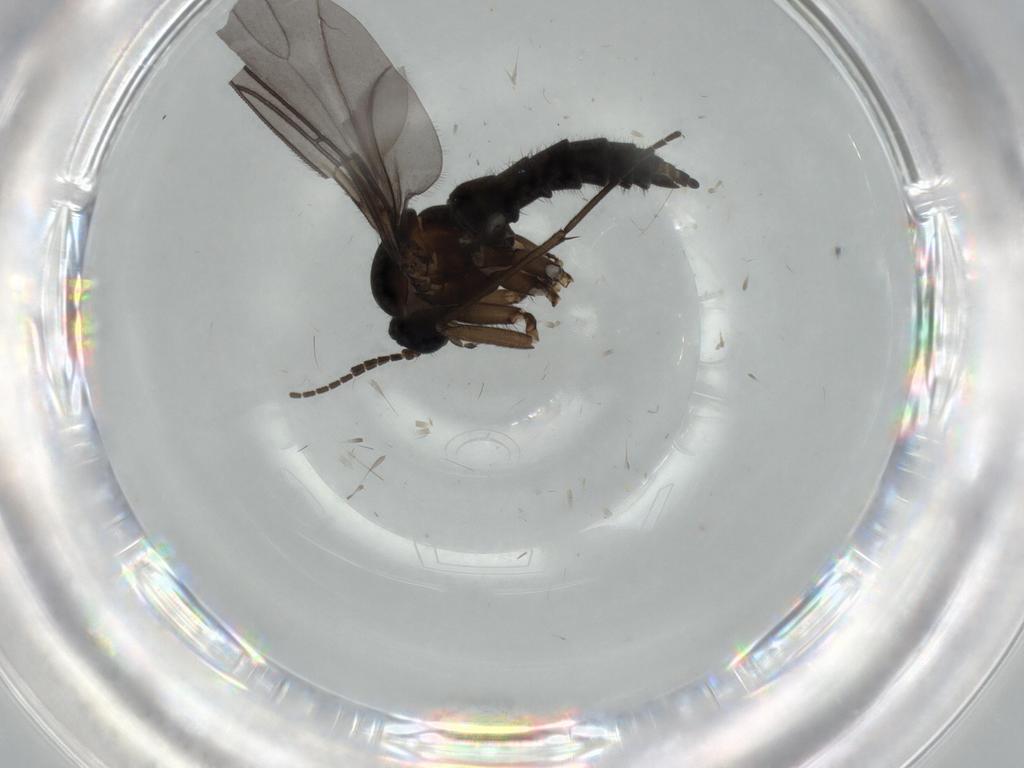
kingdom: Animalia
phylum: Arthropoda
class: Insecta
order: Diptera
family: Sciaridae
